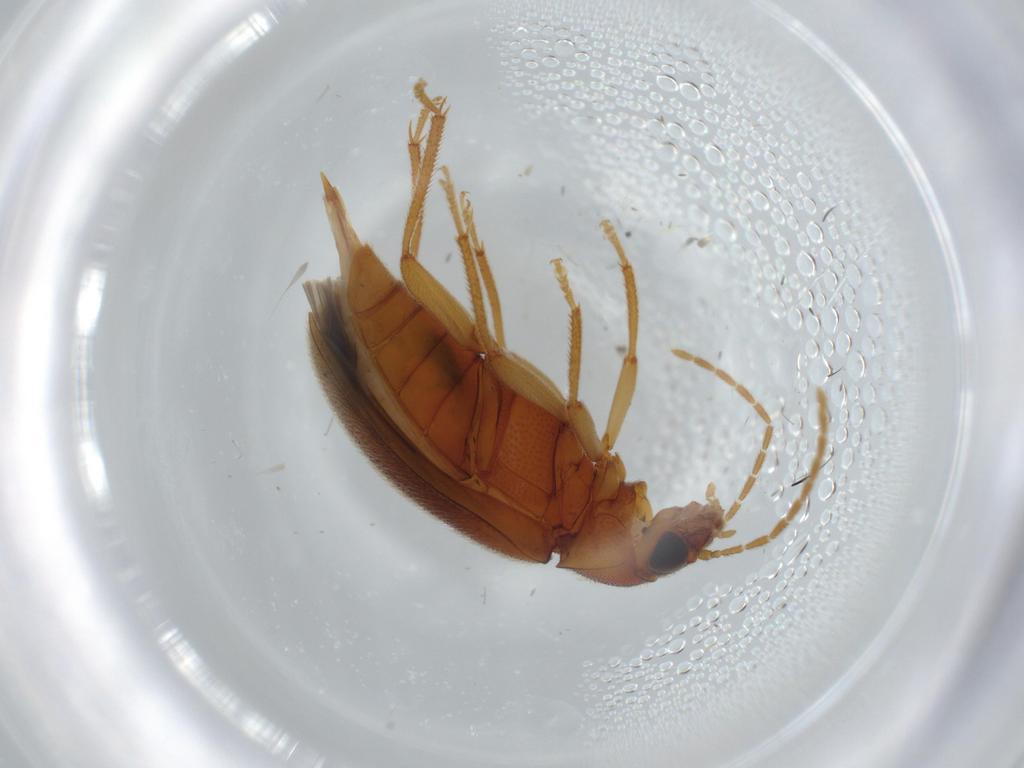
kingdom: Animalia
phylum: Arthropoda
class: Insecta
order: Coleoptera
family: Ptilodactylidae
